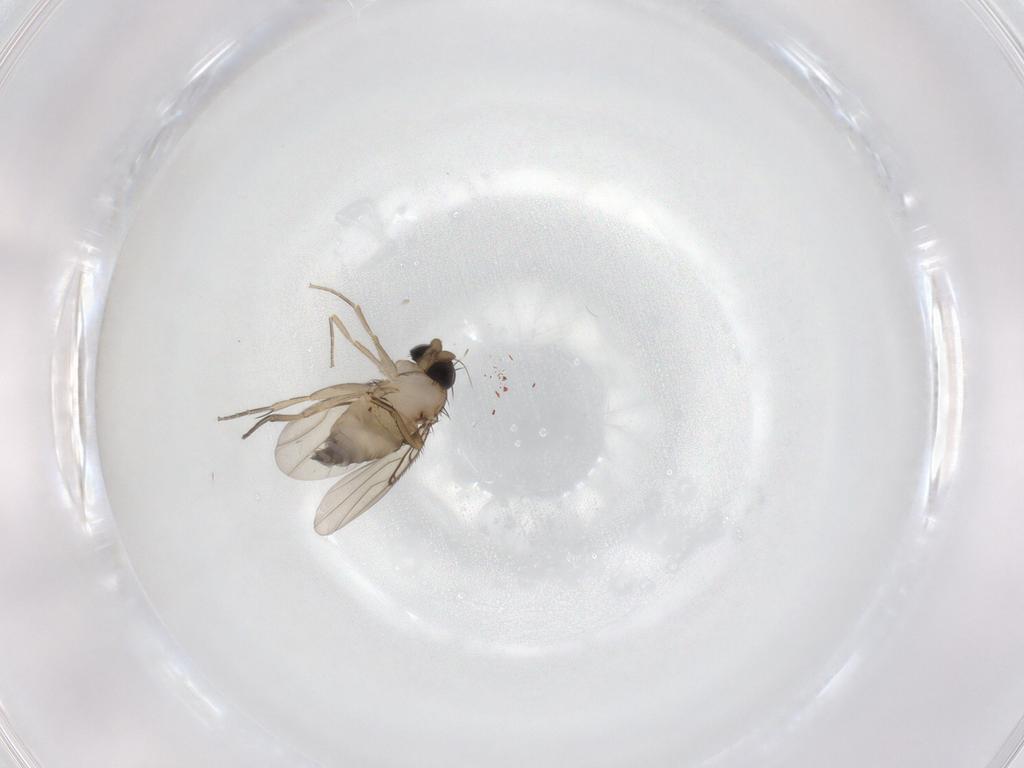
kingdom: Animalia
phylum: Arthropoda
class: Insecta
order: Diptera
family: Phoridae
